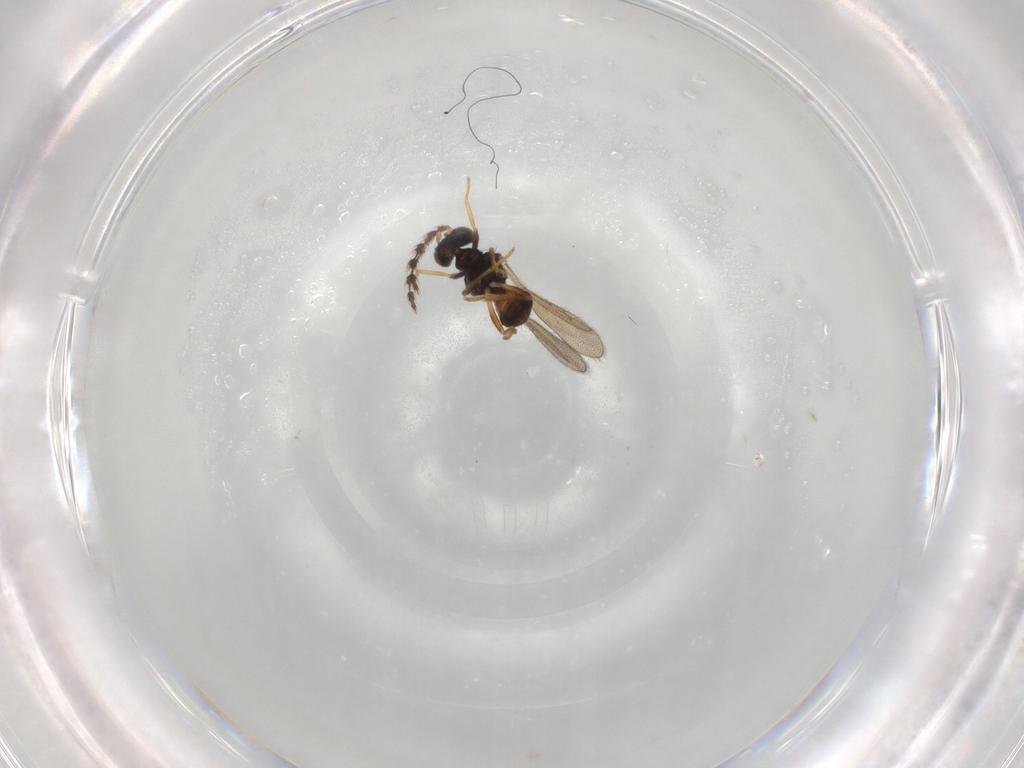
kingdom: Animalia
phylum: Arthropoda
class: Insecta
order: Hymenoptera
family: Eulophidae
